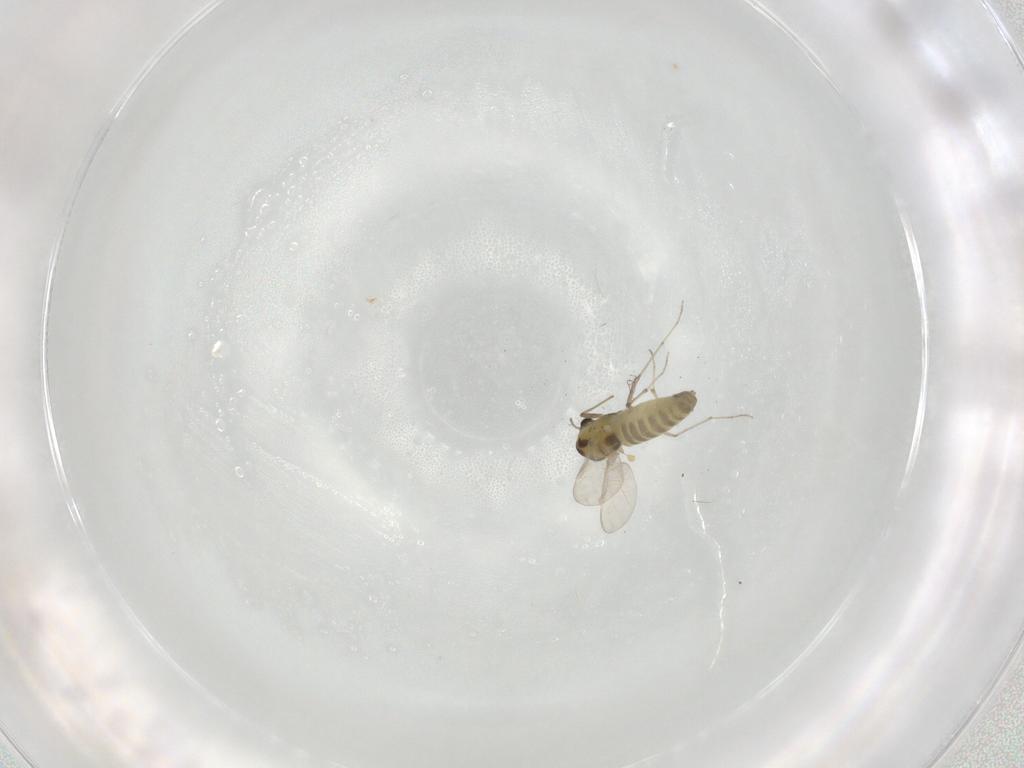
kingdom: Animalia
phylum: Arthropoda
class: Insecta
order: Diptera
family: Chironomidae
